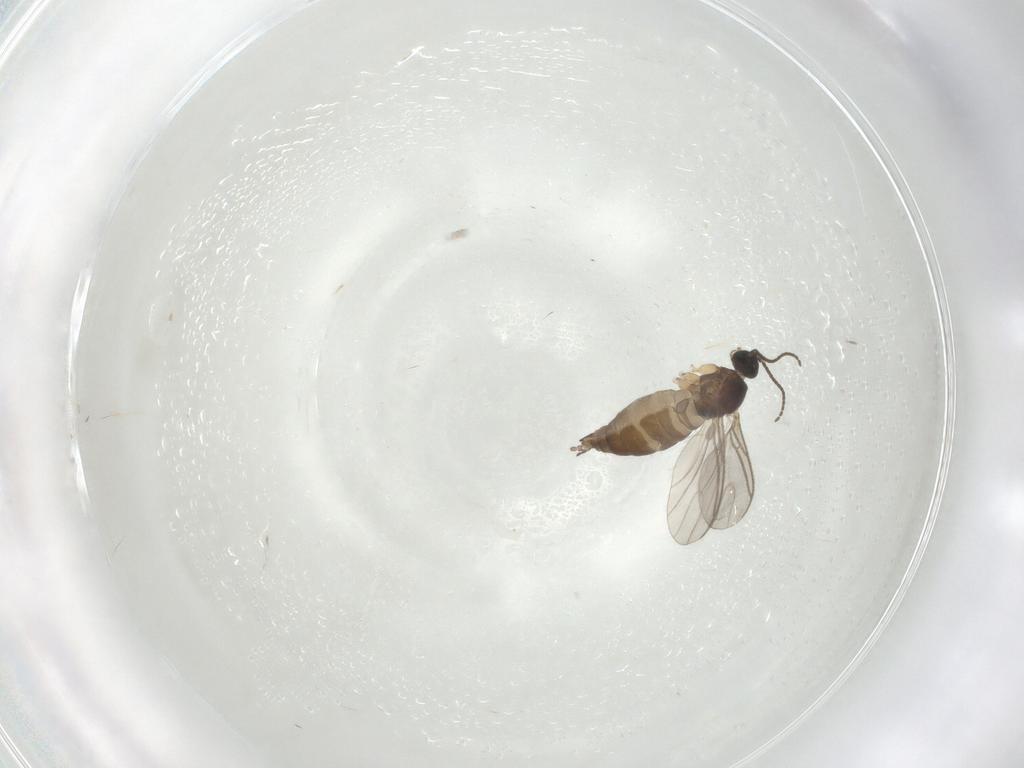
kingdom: Animalia
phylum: Arthropoda
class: Insecta
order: Diptera
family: Sciaridae
